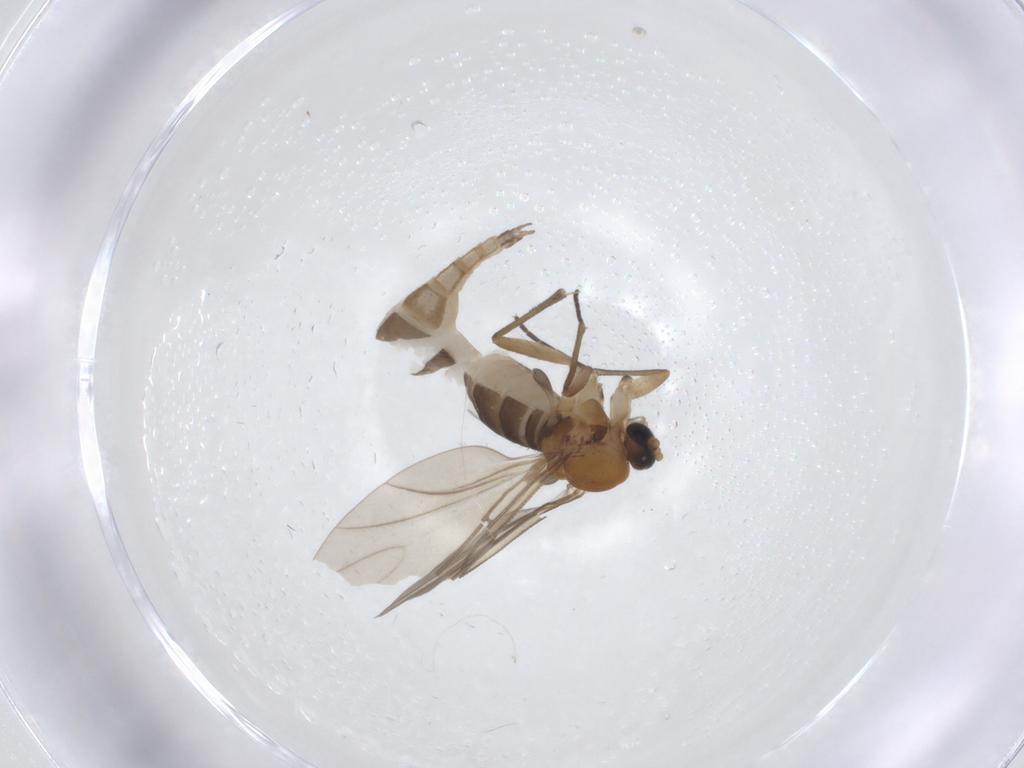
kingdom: Animalia
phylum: Arthropoda
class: Insecta
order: Diptera
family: Sciaridae
